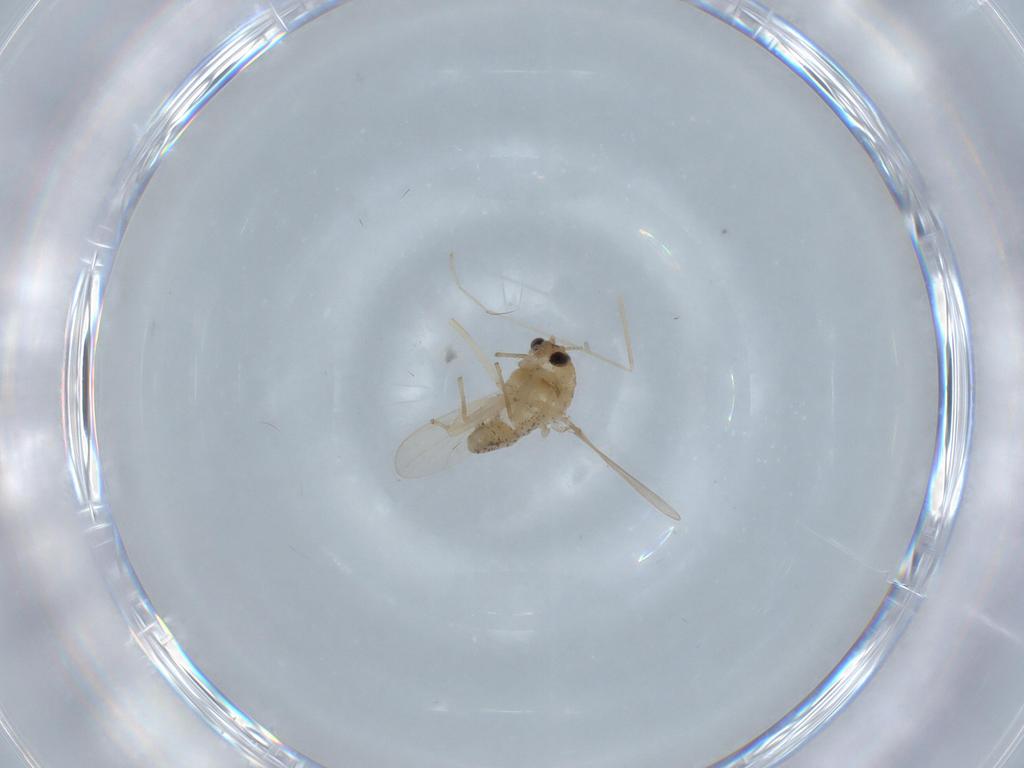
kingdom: Animalia
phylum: Arthropoda
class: Insecta
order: Diptera
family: Chironomidae
